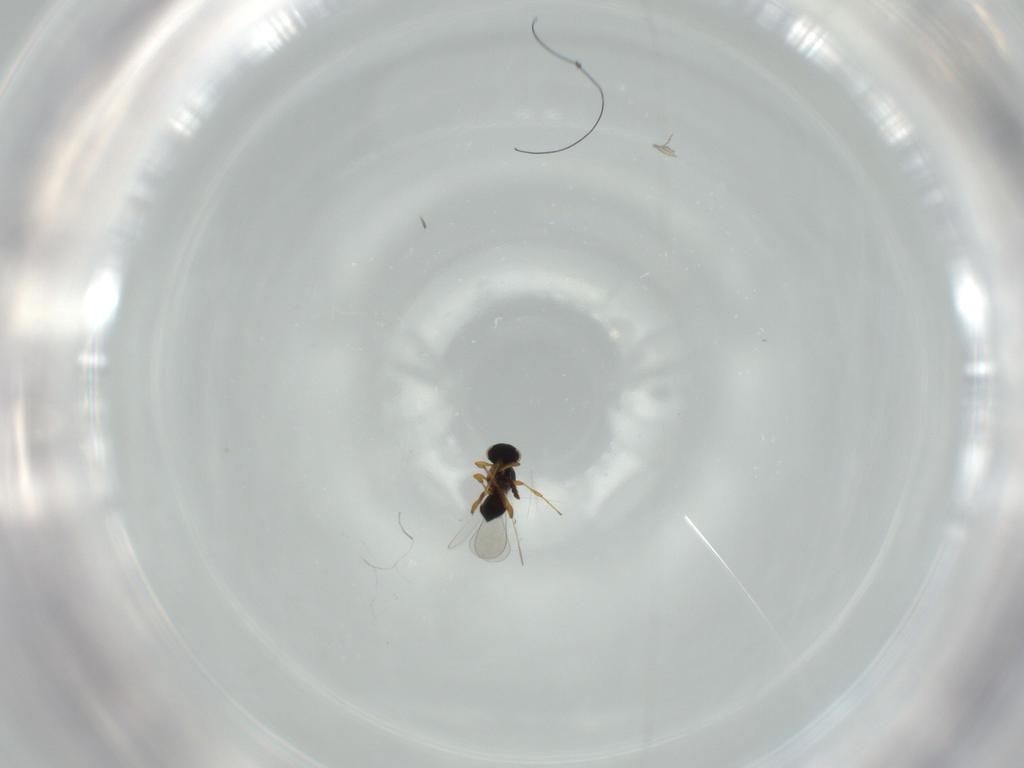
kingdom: Animalia
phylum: Arthropoda
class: Insecta
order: Hymenoptera
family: Platygastridae
